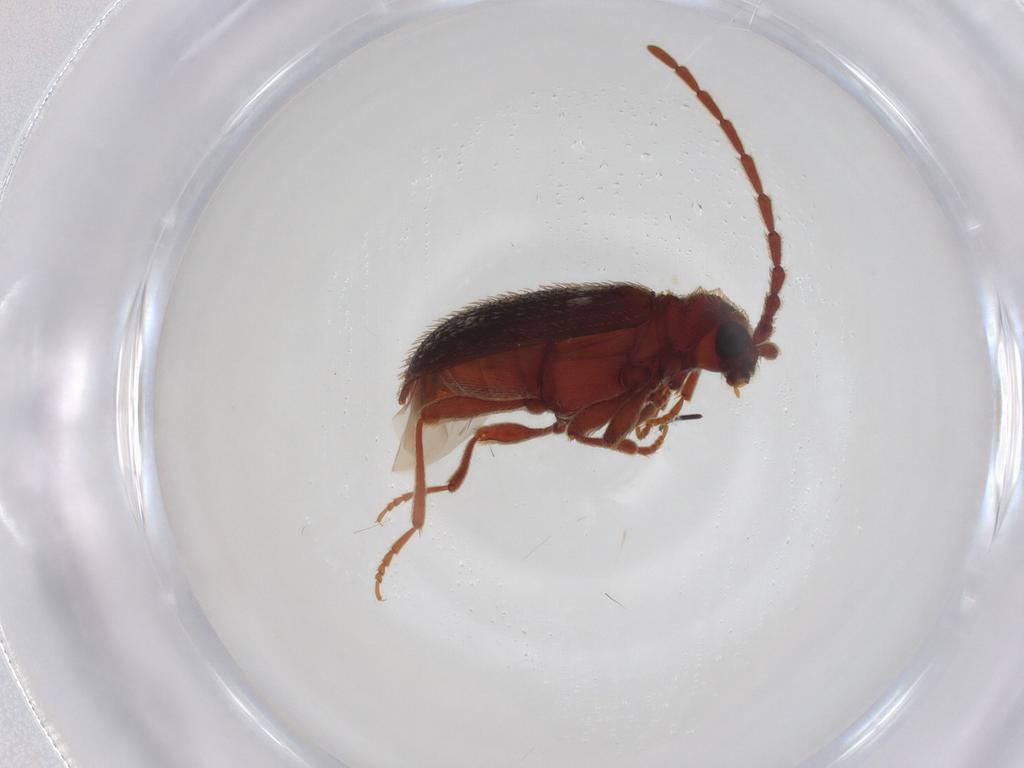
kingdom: Animalia
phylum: Arthropoda
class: Insecta
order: Coleoptera
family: Ptinidae
